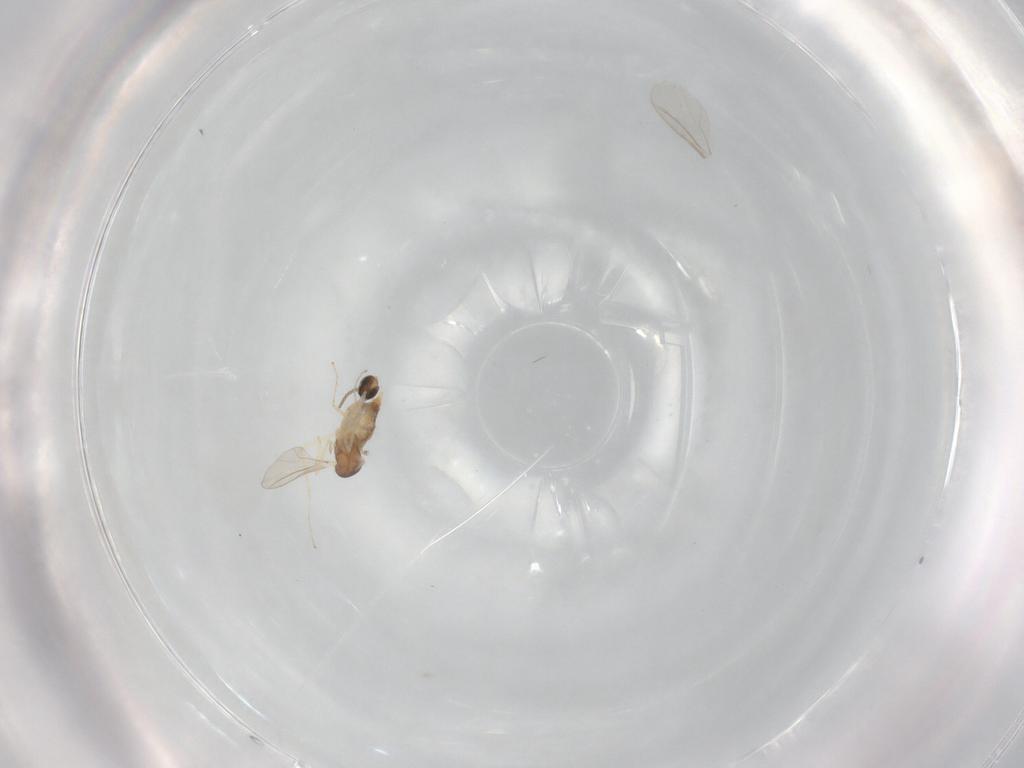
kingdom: Animalia
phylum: Arthropoda
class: Insecta
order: Diptera
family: Cecidomyiidae
